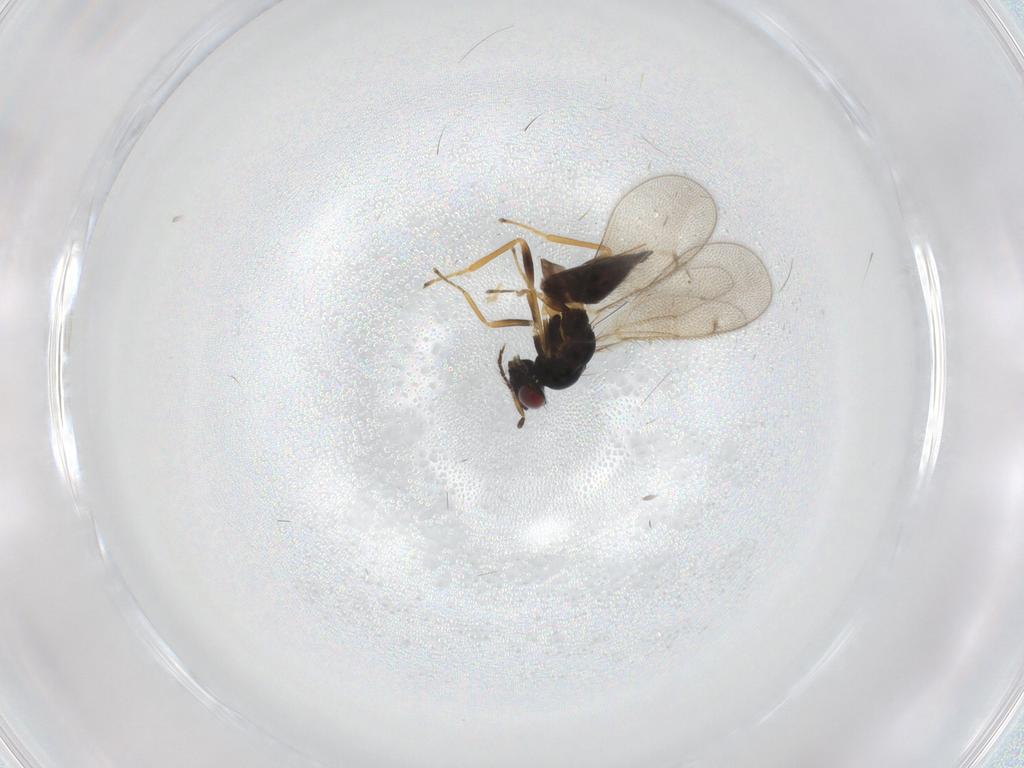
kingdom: Animalia
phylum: Arthropoda
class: Insecta
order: Hymenoptera
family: Eulophidae
